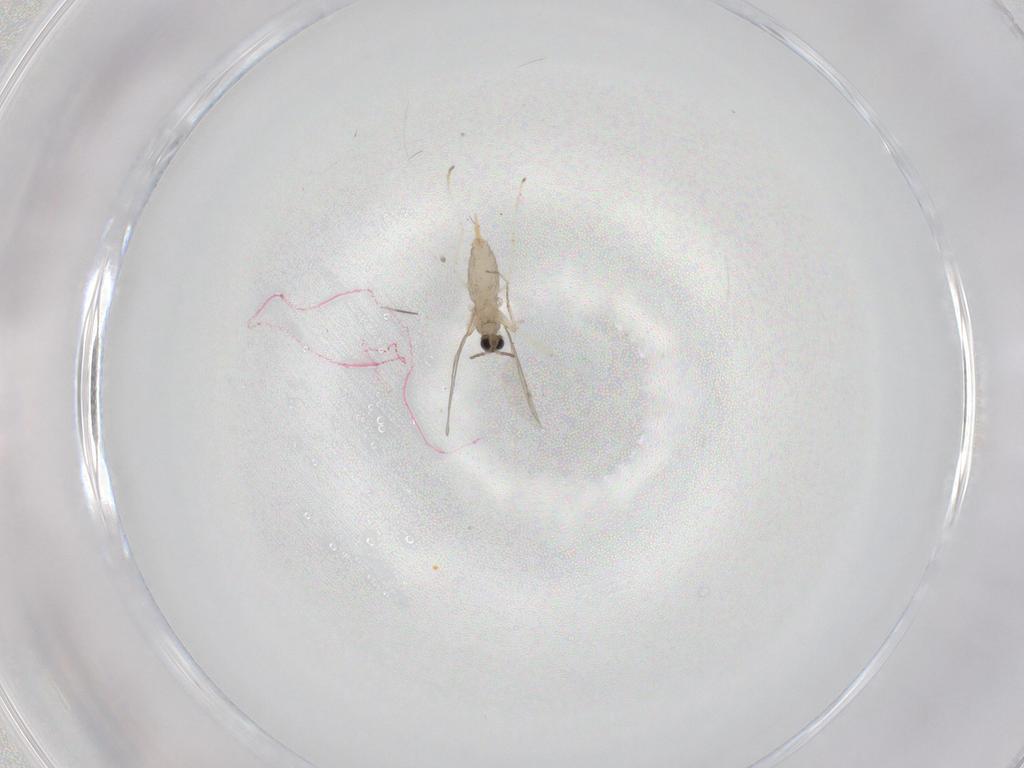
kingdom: Animalia
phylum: Arthropoda
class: Insecta
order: Diptera
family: Cecidomyiidae
